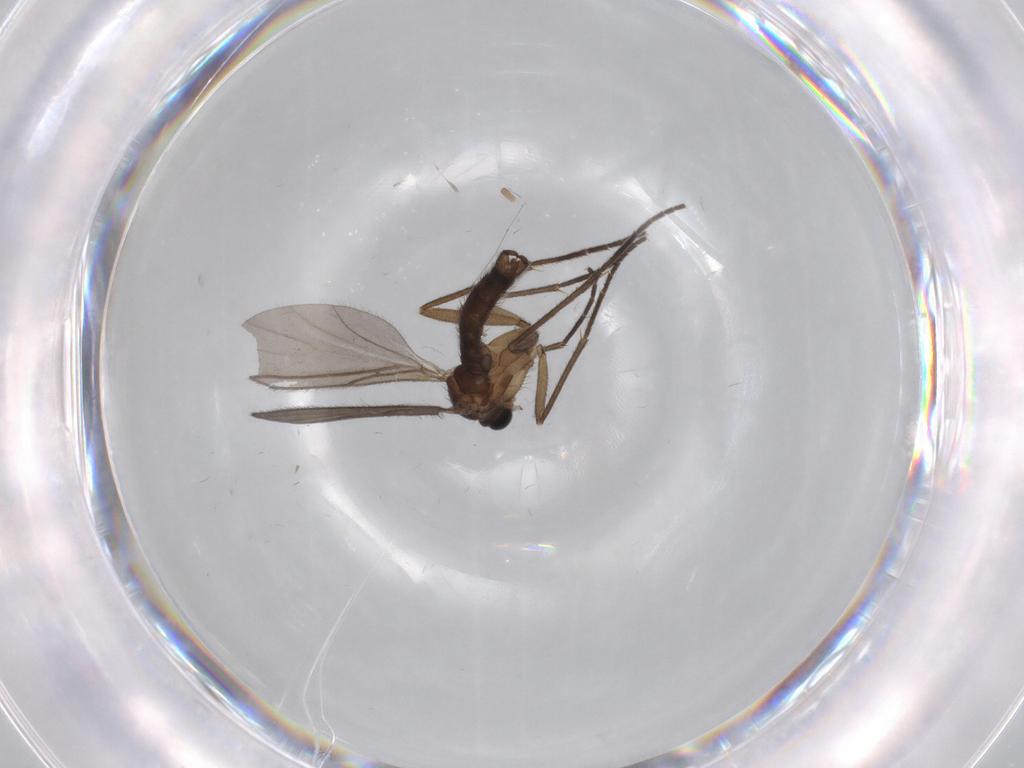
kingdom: Animalia
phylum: Arthropoda
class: Insecta
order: Diptera
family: Sciaridae
